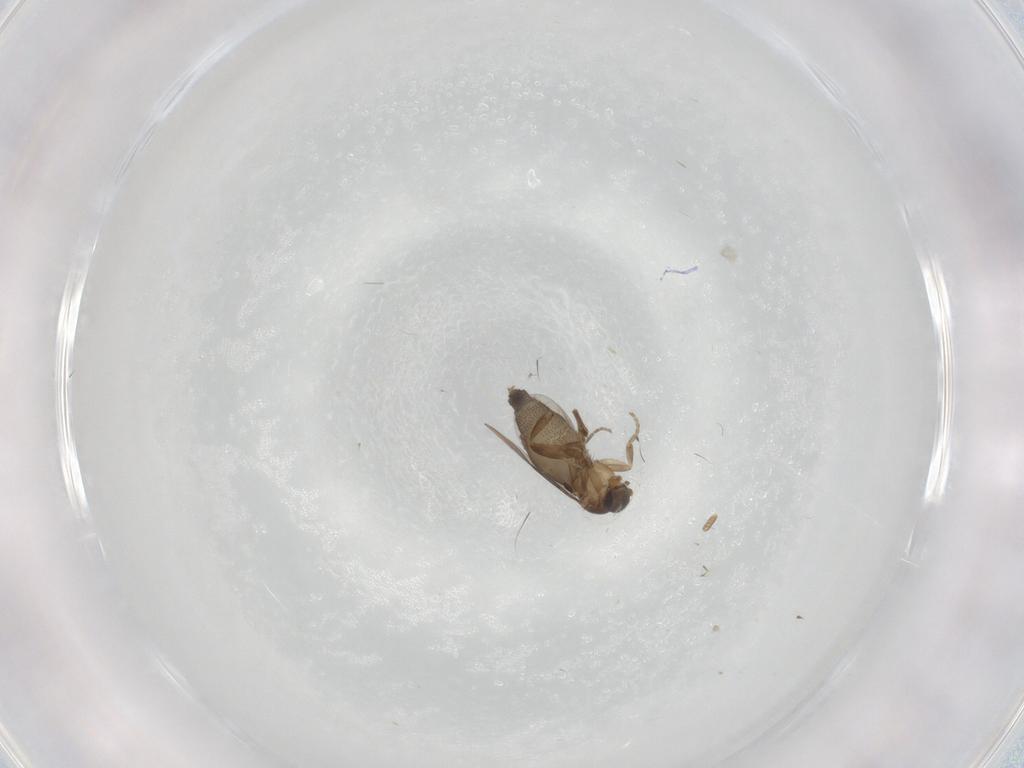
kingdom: Animalia
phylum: Arthropoda
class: Insecta
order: Diptera
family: Phoridae
